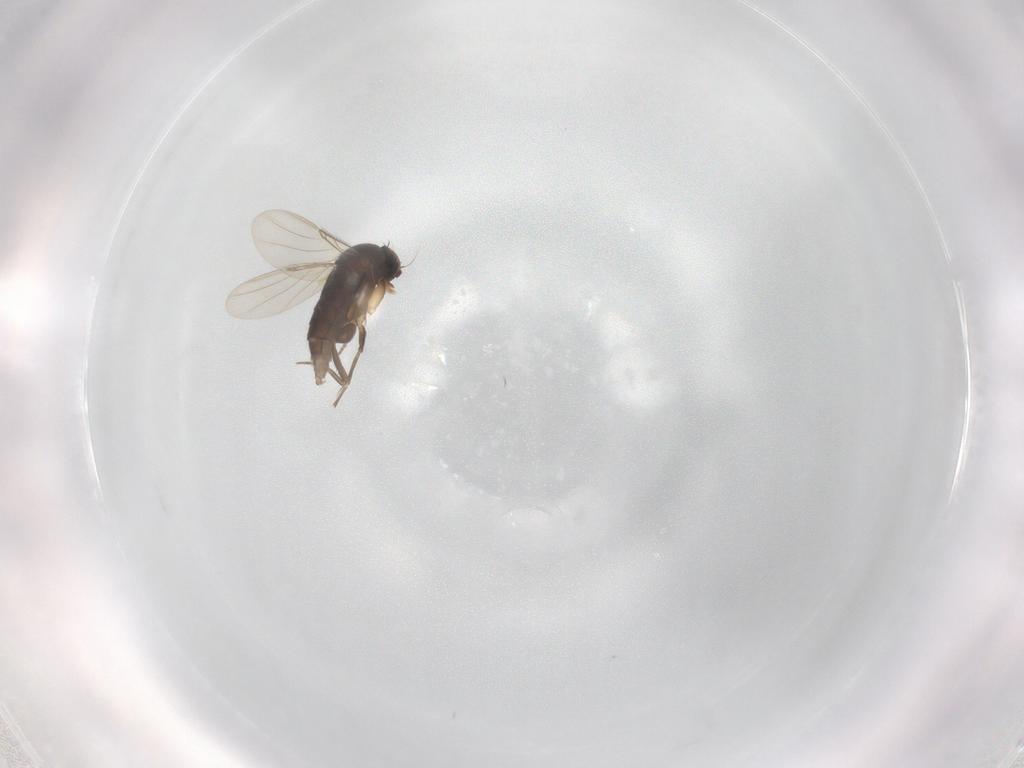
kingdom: Animalia
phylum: Arthropoda
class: Insecta
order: Diptera
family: Phoridae
